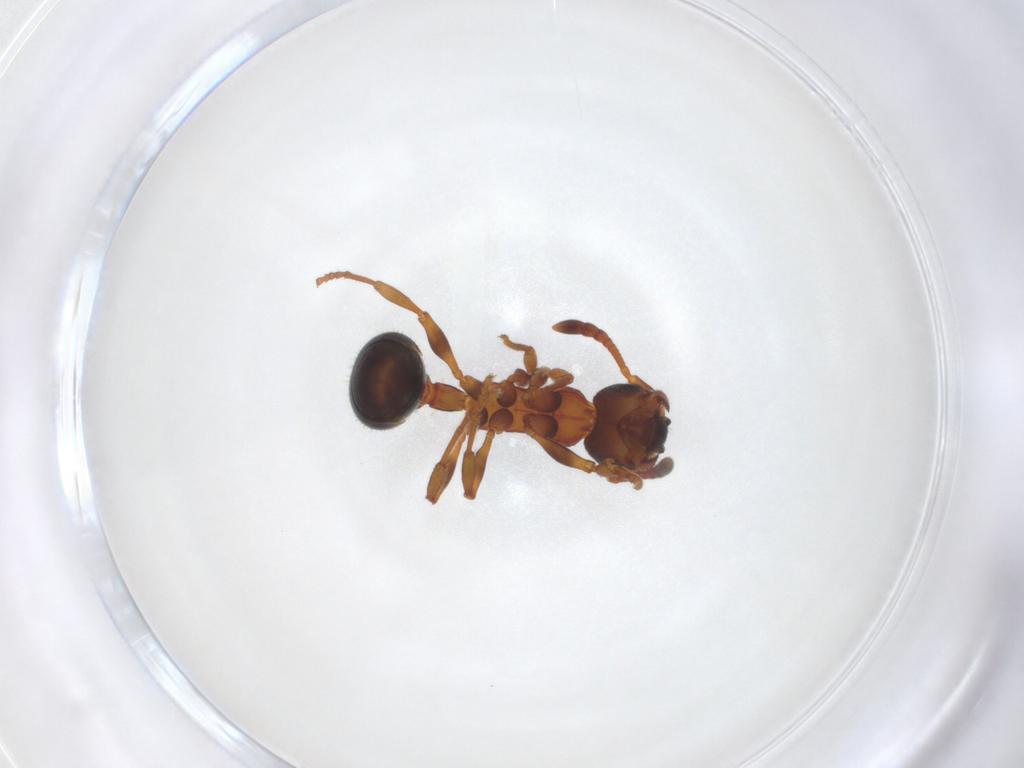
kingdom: Animalia
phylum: Arthropoda
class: Insecta
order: Hymenoptera
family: Formicidae
